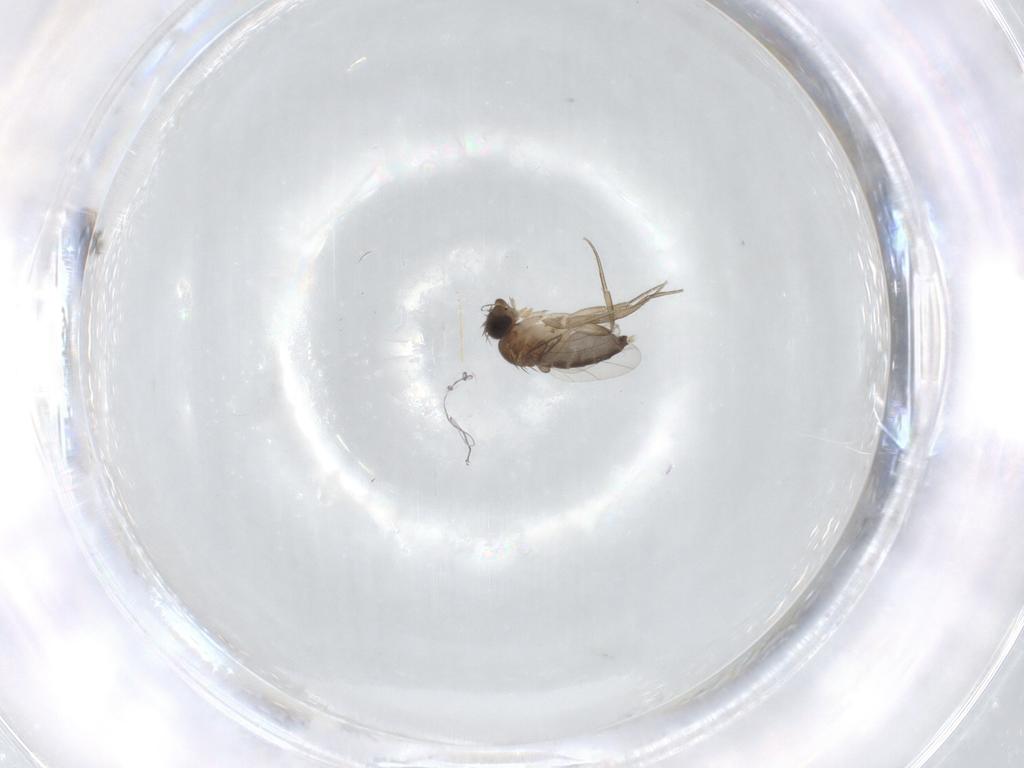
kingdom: Animalia
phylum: Arthropoda
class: Insecta
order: Diptera
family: Phoridae
